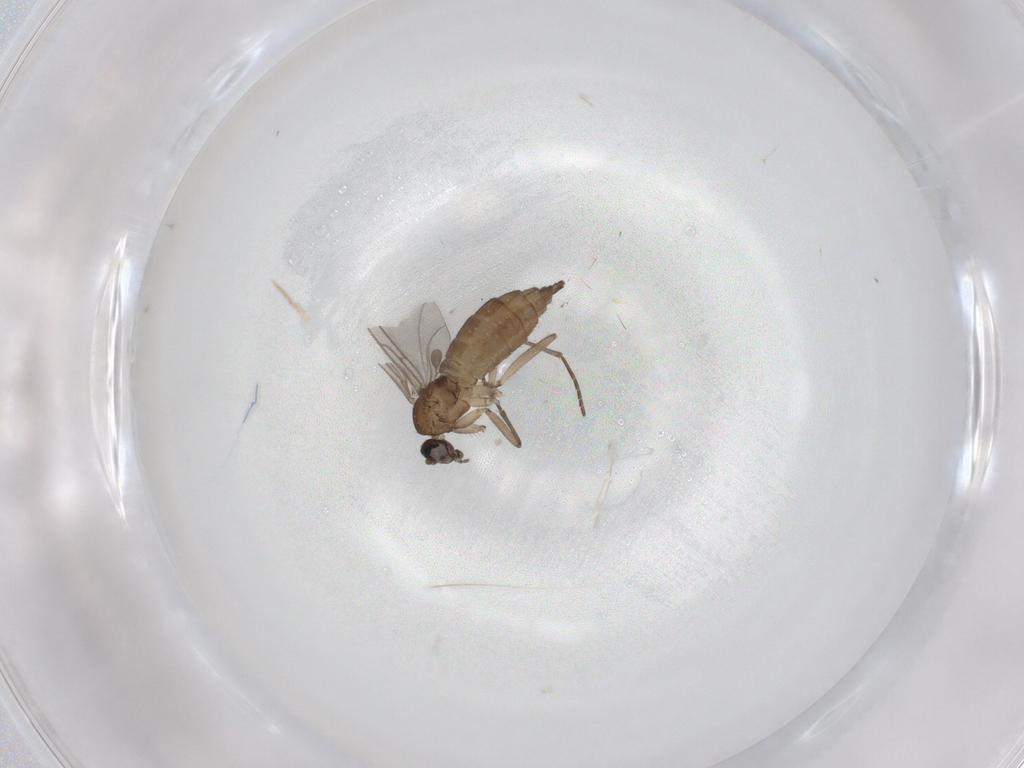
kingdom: Animalia
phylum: Arthropoda
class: Insecta
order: Diptera
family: Sciaridae
